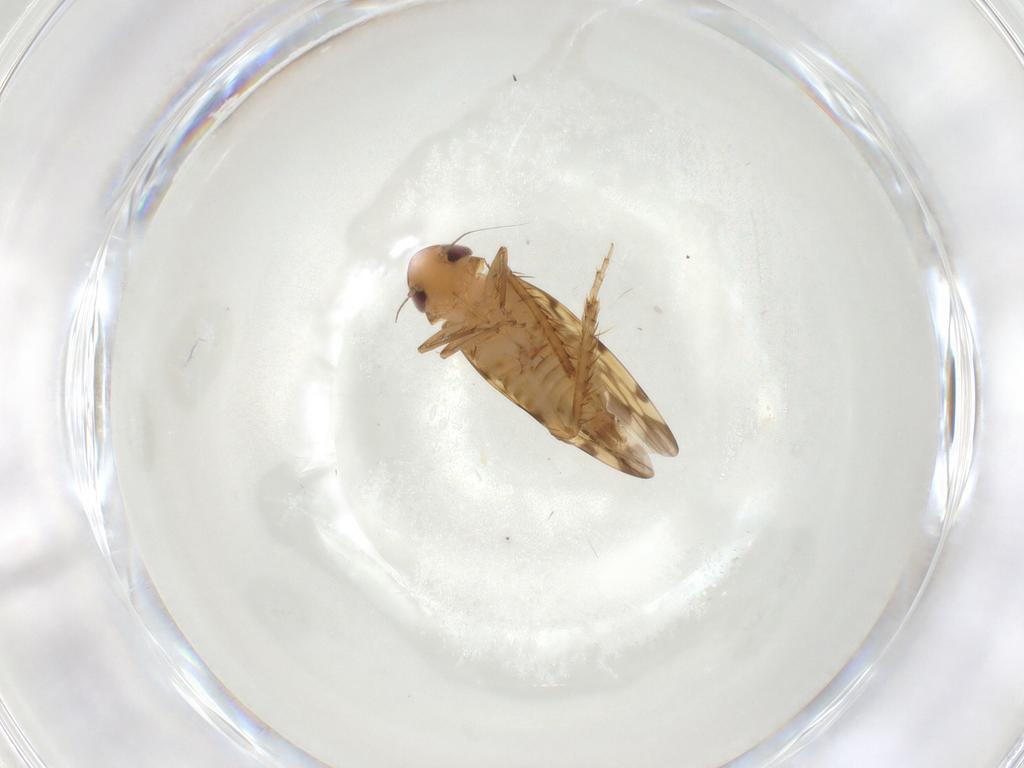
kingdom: Animalia
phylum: Arthropoda
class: Insecta
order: Hemiptera
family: Cicadellidae
